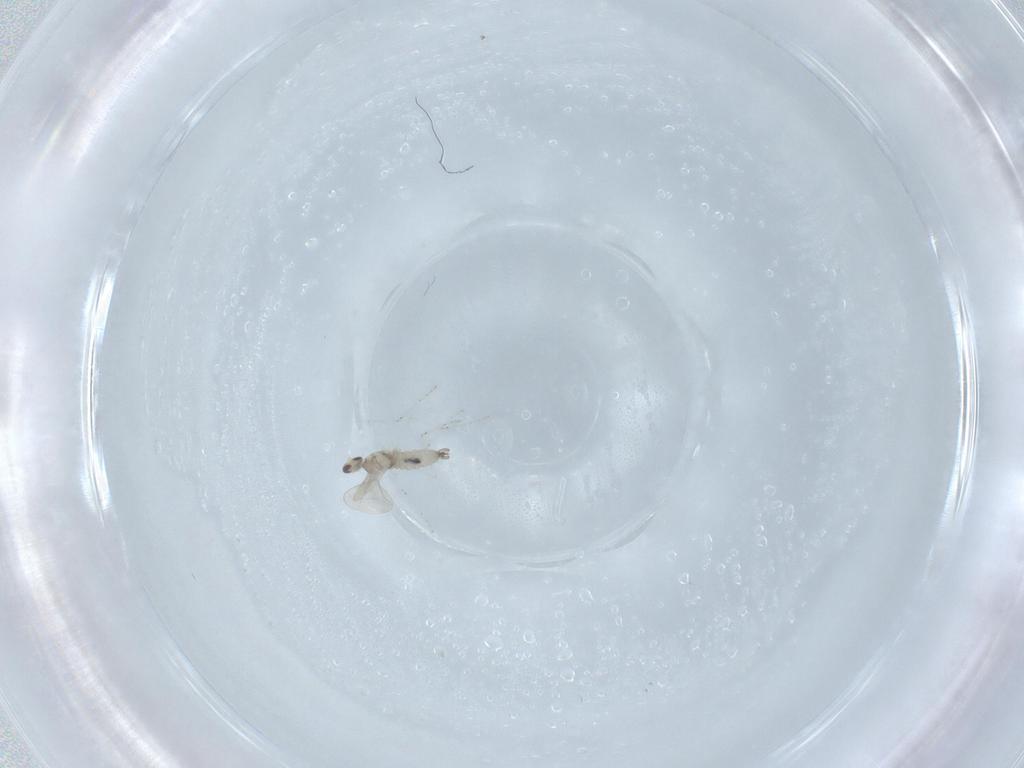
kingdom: Animalia
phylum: Arthropoda
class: Insecta
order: Diptera
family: Cecidomyiidae
